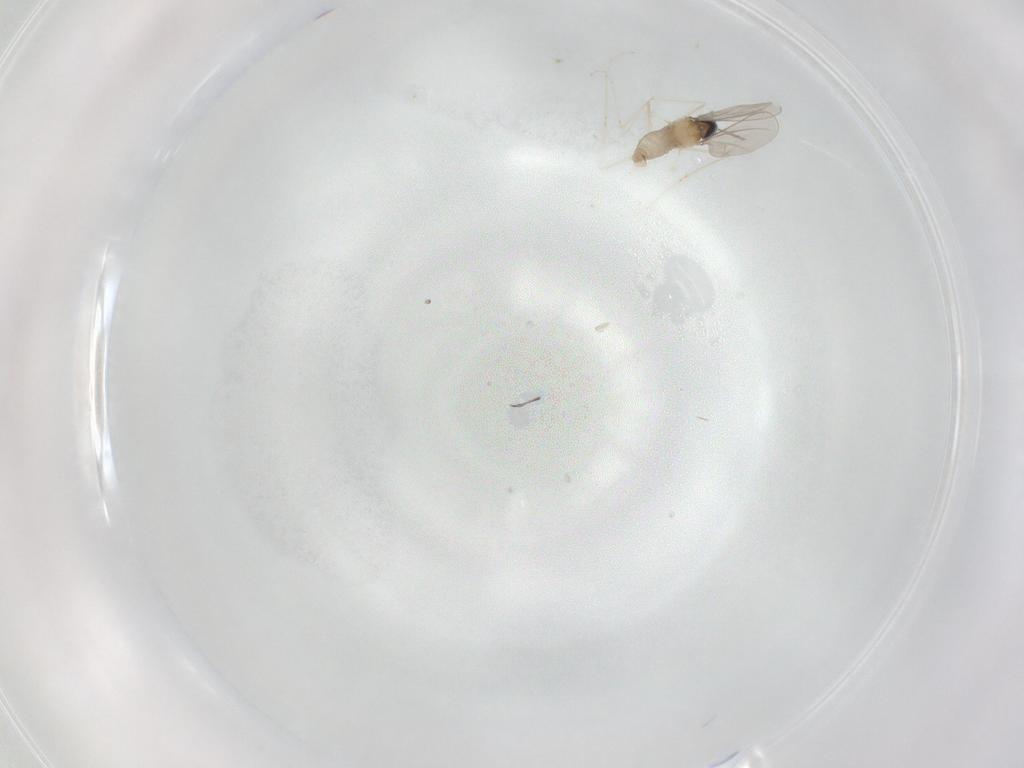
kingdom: Animalia
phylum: Arthropoda
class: Insecta
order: Diptera
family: Cecidomyiidae
